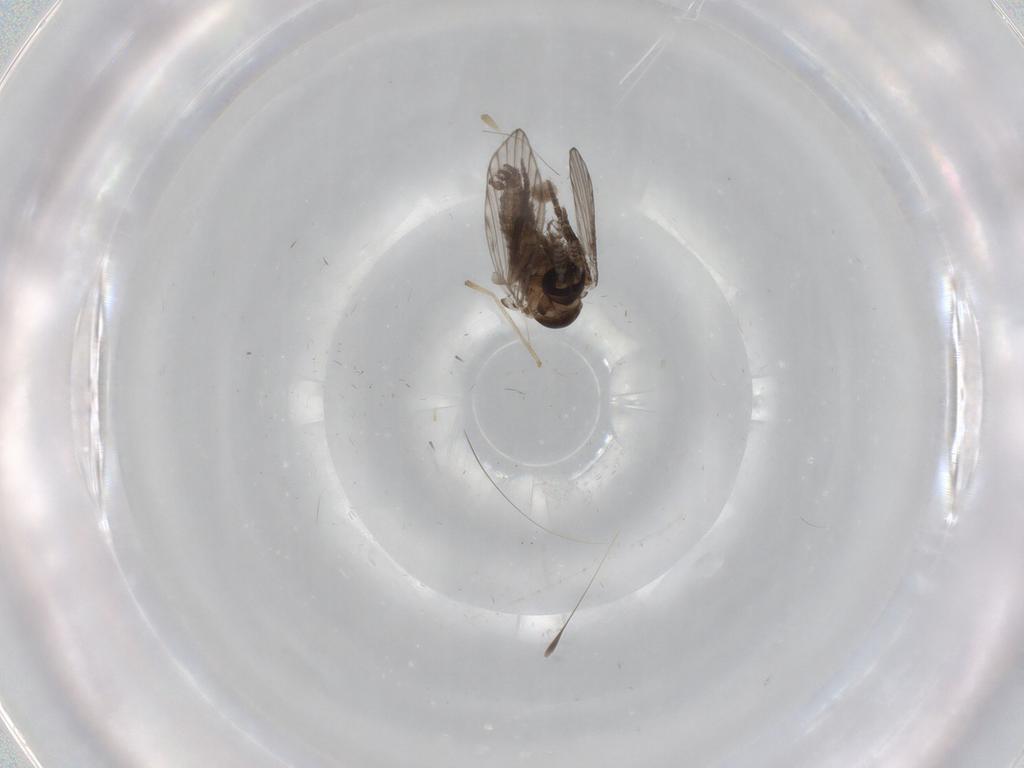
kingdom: Animalia
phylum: Arthropoda
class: Insecta
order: Diptera
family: Psychodidae
